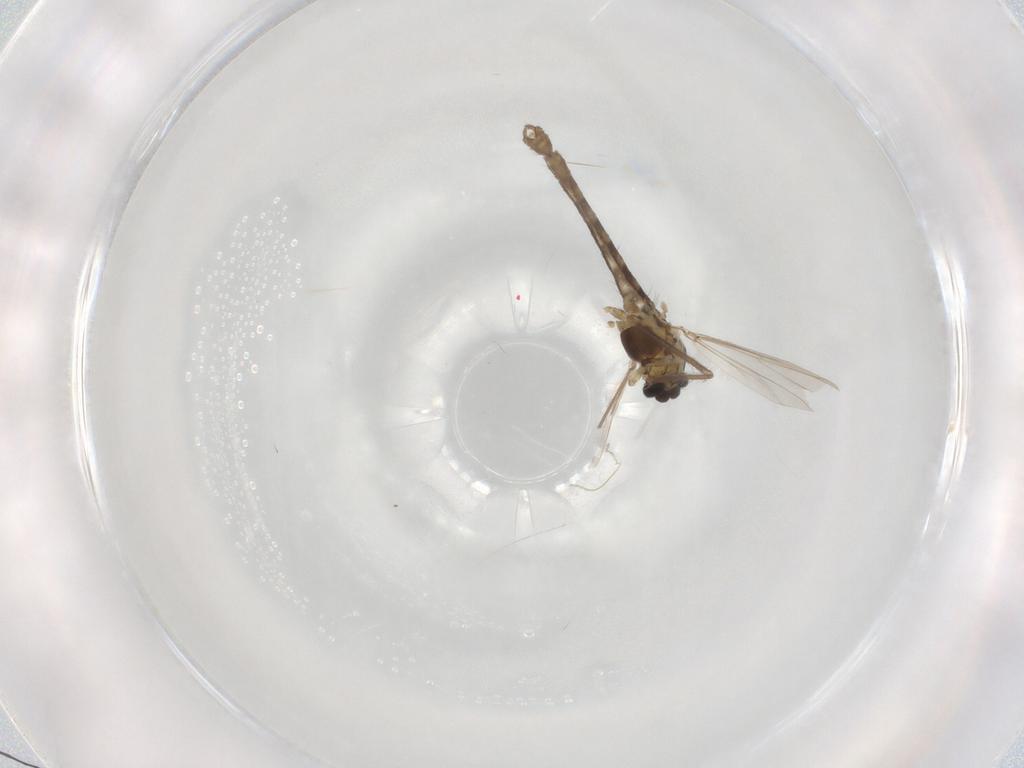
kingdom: Animalia
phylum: Arthropoda
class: Insecta
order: Diptera
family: Chironomidae
